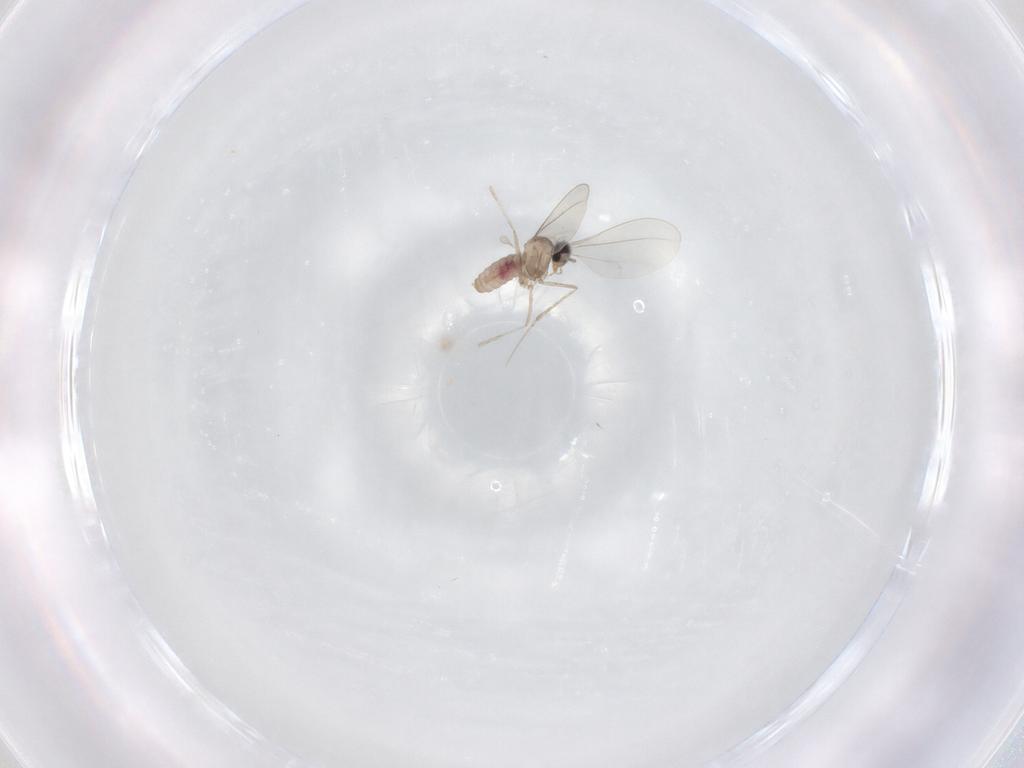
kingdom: Animalia
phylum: Arthropoda
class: Insecta
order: Diptera
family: Cecidomyiidae
